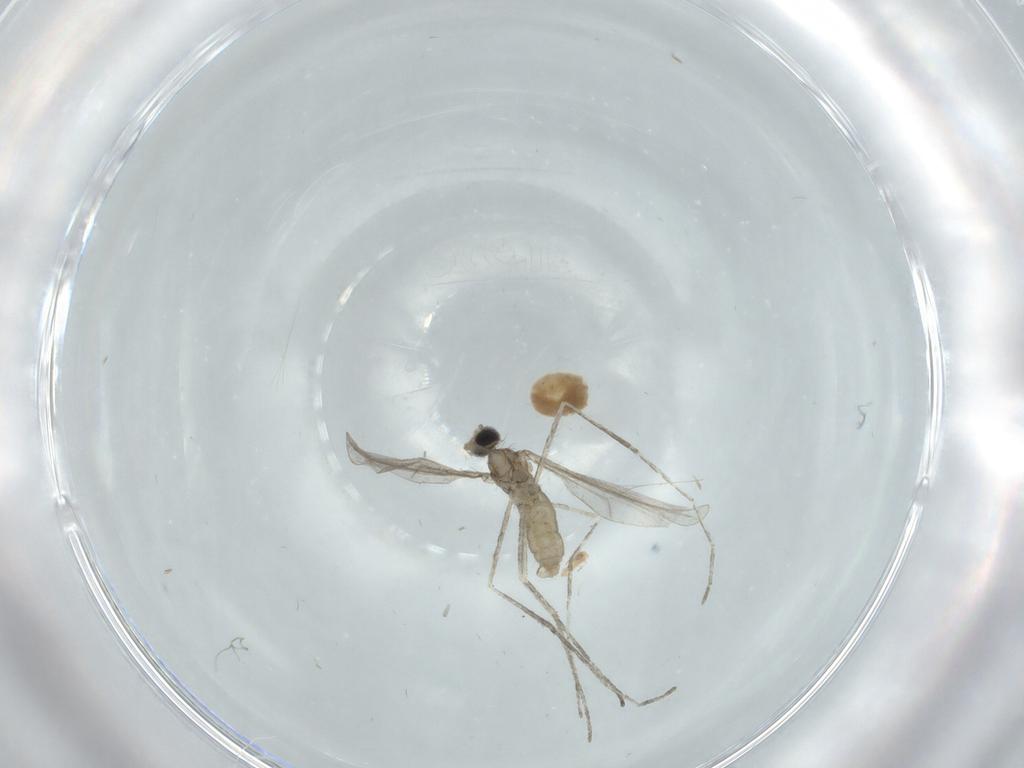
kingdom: Animalia
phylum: Arthropoda
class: Insecta
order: Diptera
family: Cecidomyiidae
